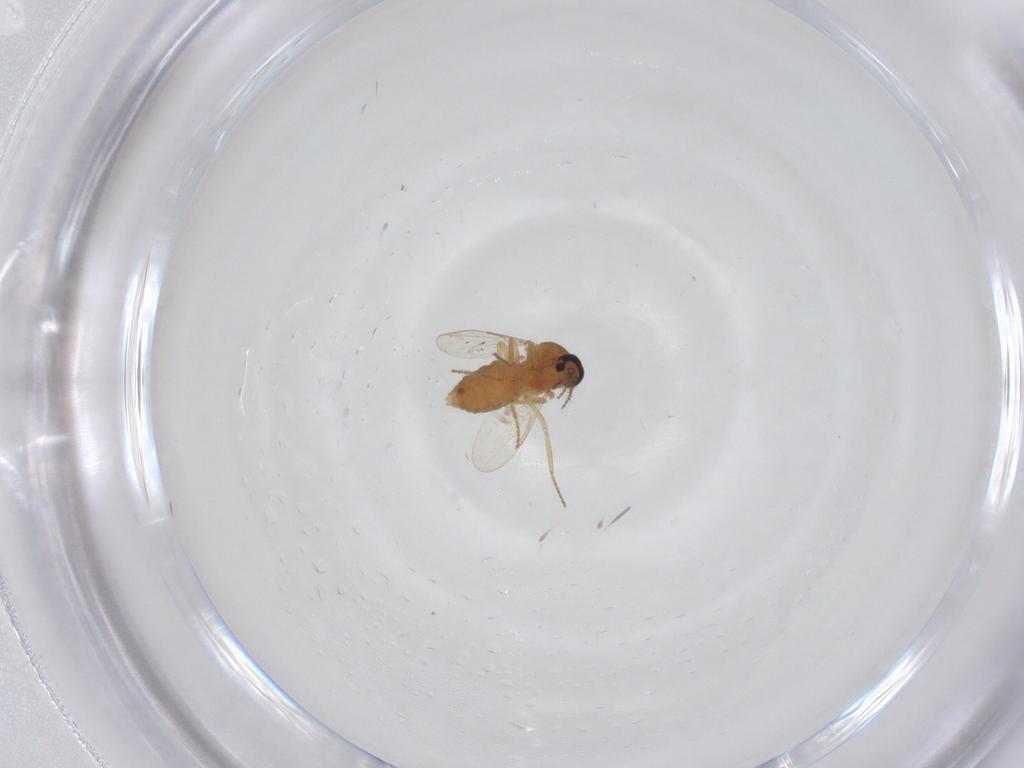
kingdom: Animalia
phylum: Arthropoda
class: Insecta
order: Diptera
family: Ceratopogonidae
